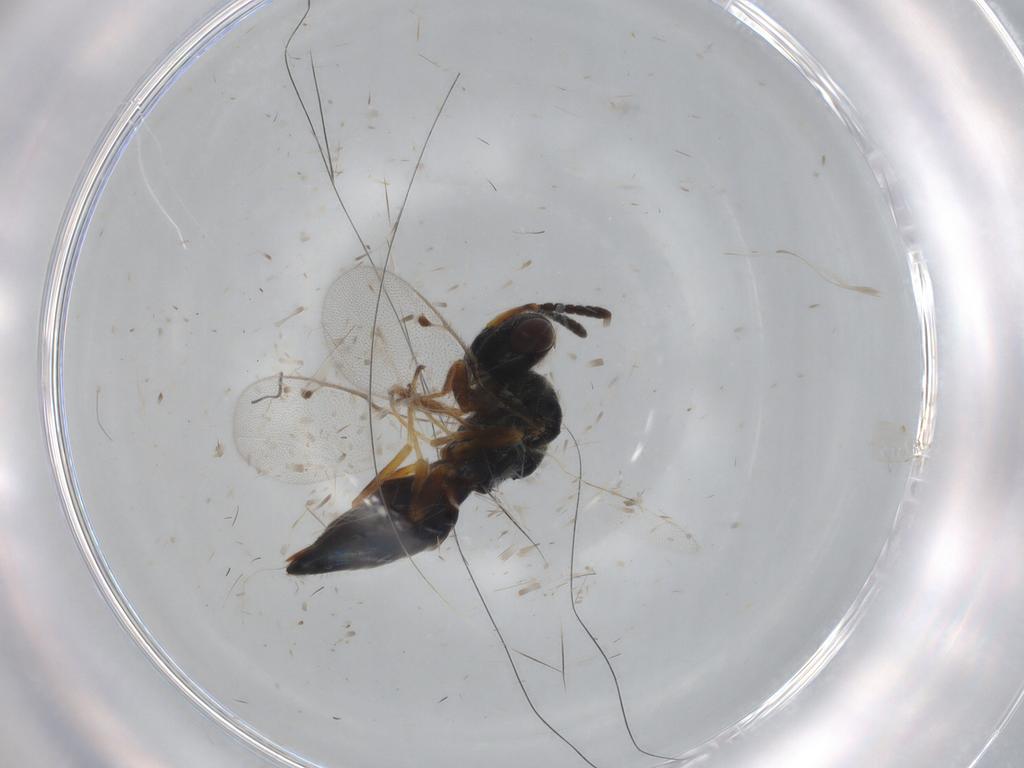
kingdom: Animalia
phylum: Arthropoda
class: Insecta
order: Hymenoptera
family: Pteromalidae
